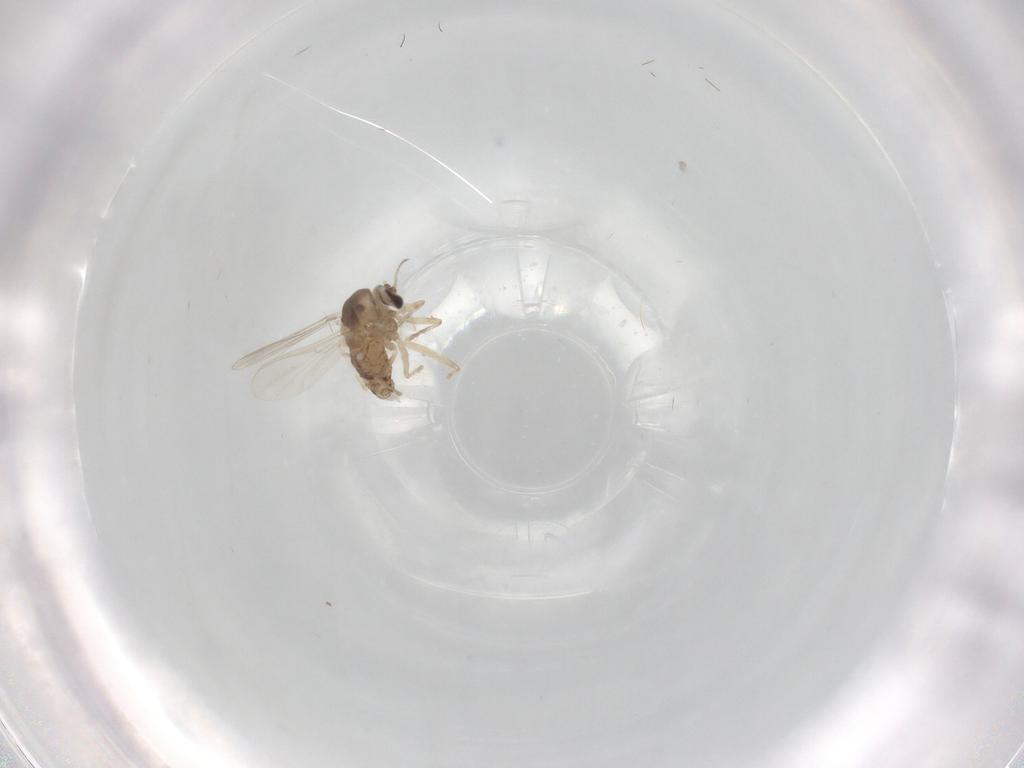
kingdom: Animalia
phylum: Arthropoda
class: Insecta
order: Diptera
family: Chironomidae
